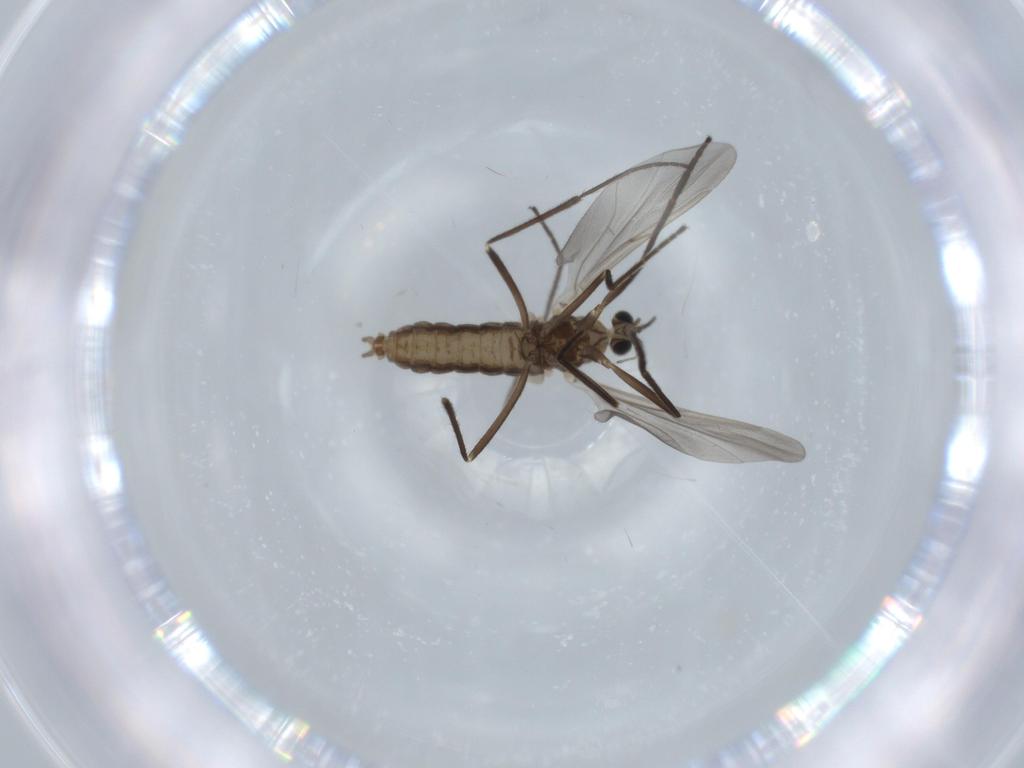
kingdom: Animalia
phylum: Arthropoda
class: Insecta
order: Diptera
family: Cecidomyiidae
